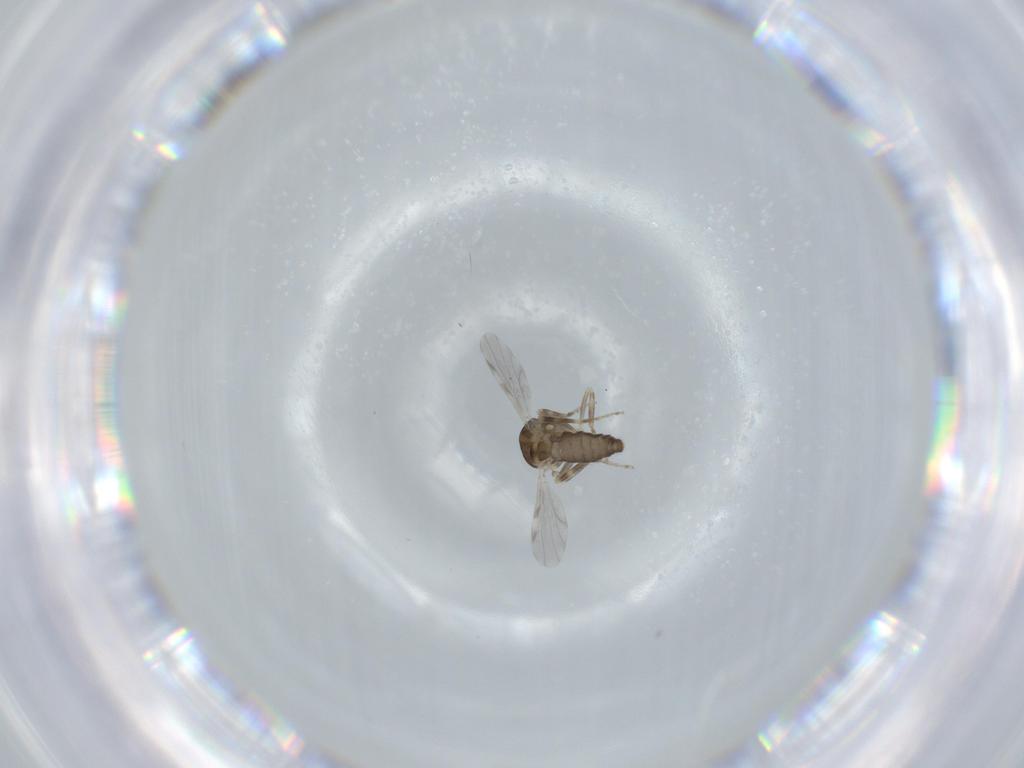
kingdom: Animalia
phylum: Arthropoda
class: Insecta
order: Diptera
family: Ceratopogonidae
